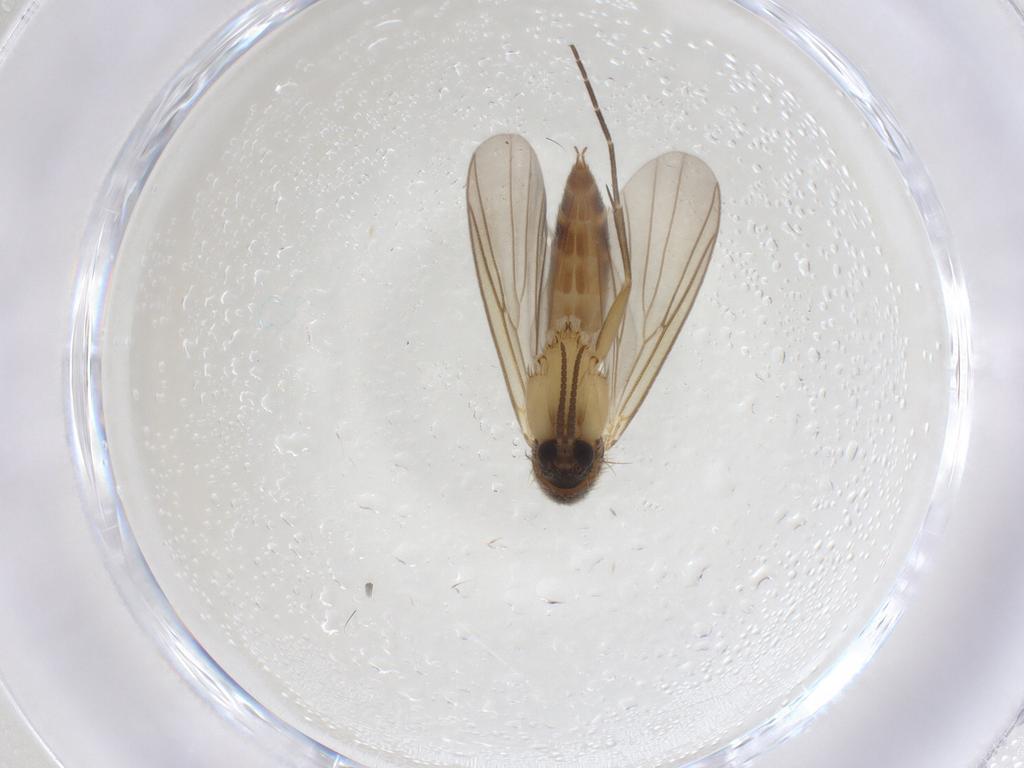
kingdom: Animalia
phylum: Arthropoda
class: Insecta
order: Diptera
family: Mycetophilidae
